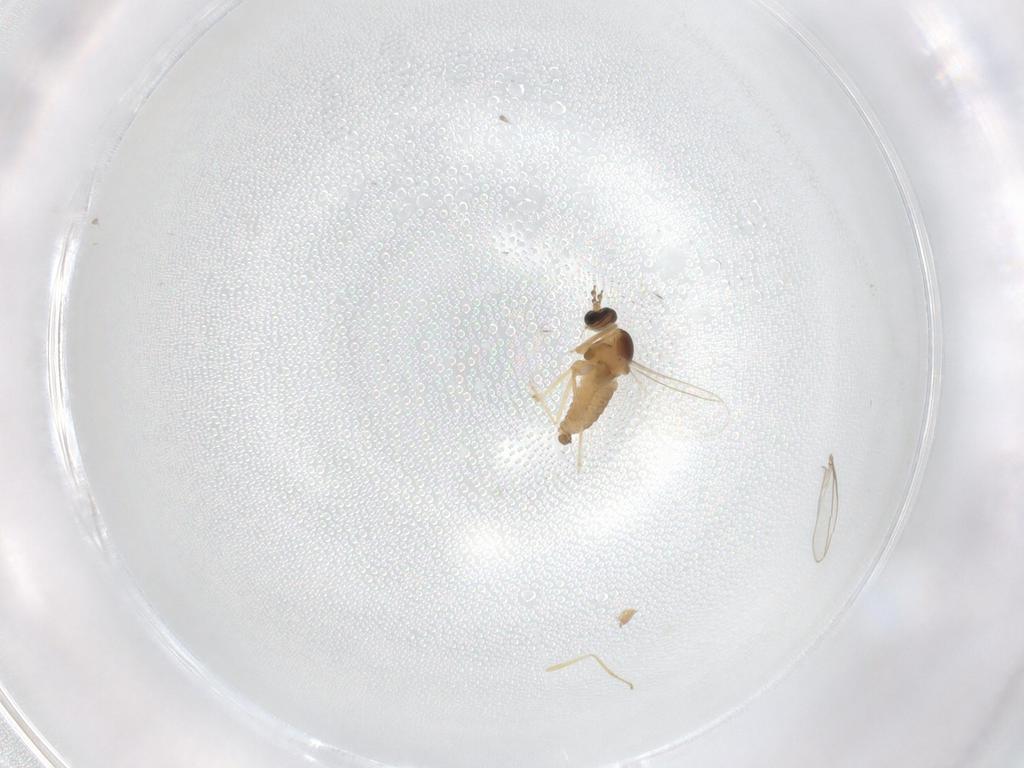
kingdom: Animalia
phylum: Arthropoda
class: Insecta
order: Diptera
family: Cecidomyiidae
